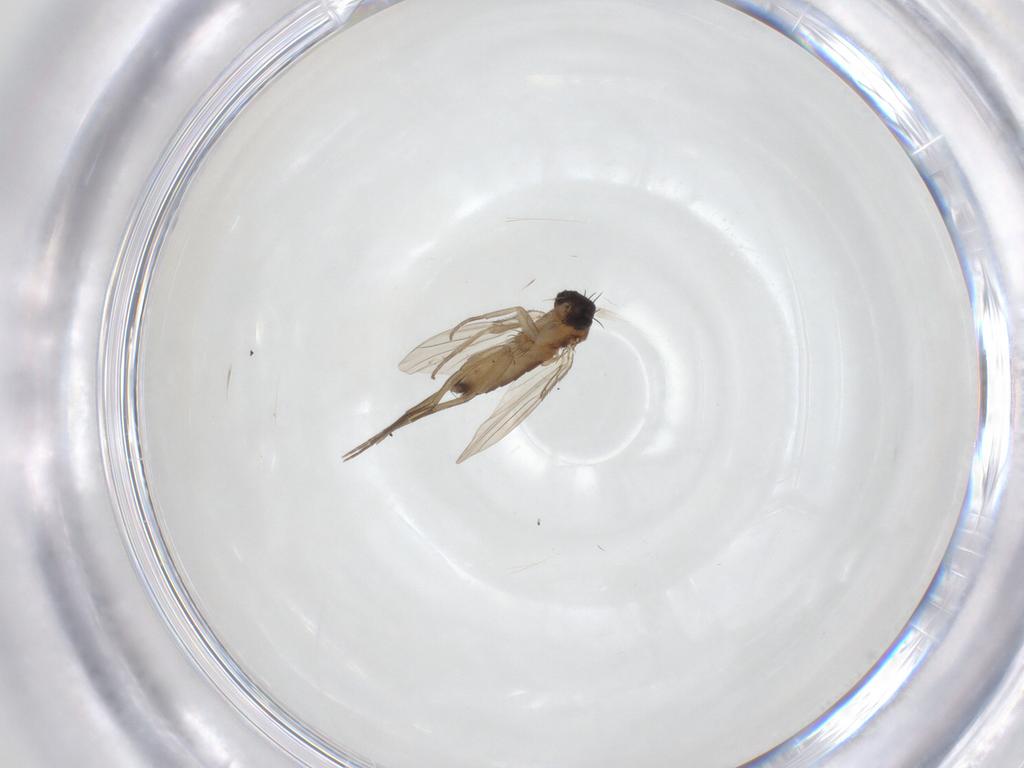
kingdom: Animalia
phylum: Arthropoda
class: Insecta
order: Diptera
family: Phoridae
